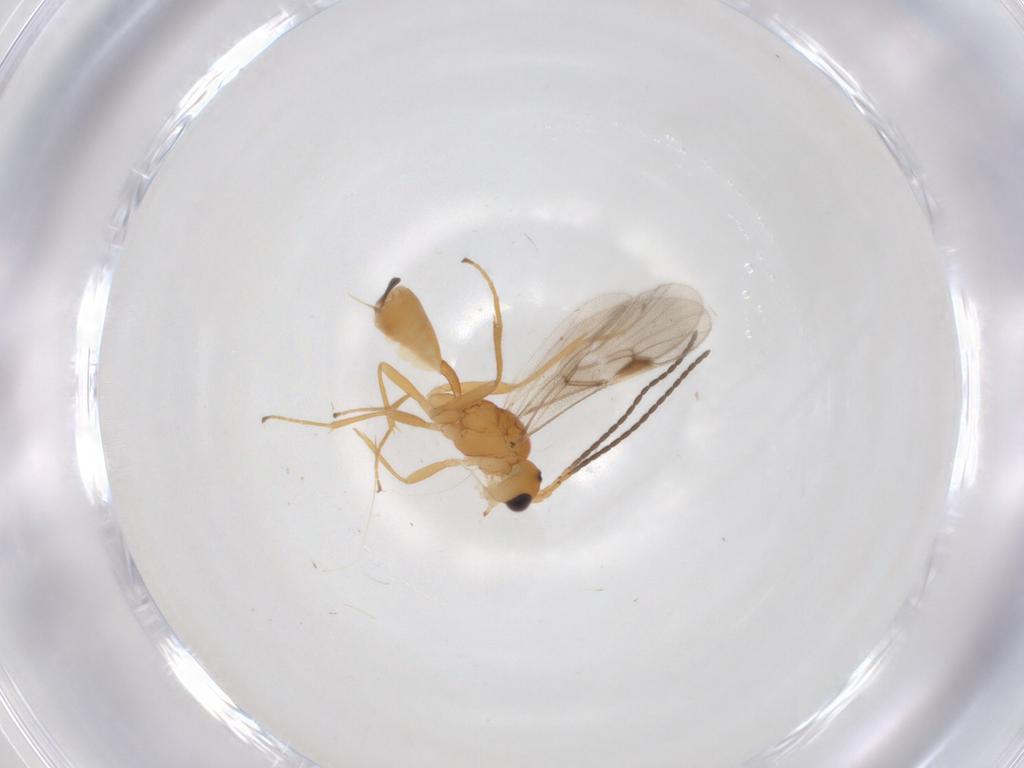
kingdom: Animalia
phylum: Arthropoda
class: Insecta
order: Hymenoptera
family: Braconidae
